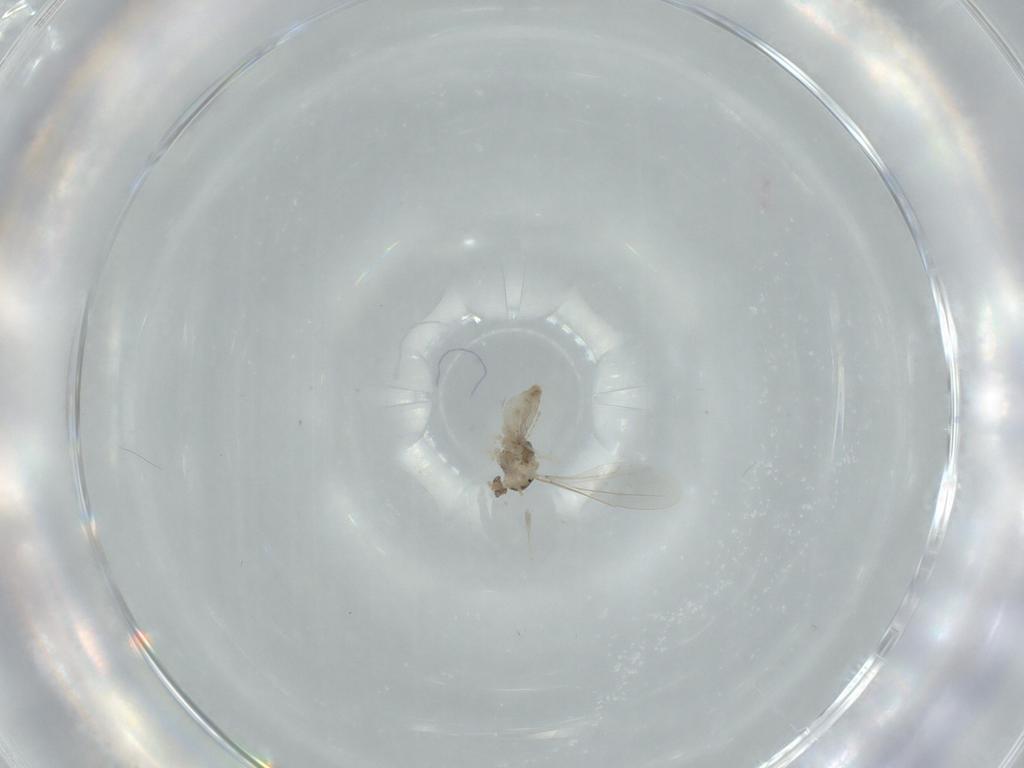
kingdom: Animalia
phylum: Arthropoda
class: Insecta
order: Diptera
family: Cecidomyiidae
